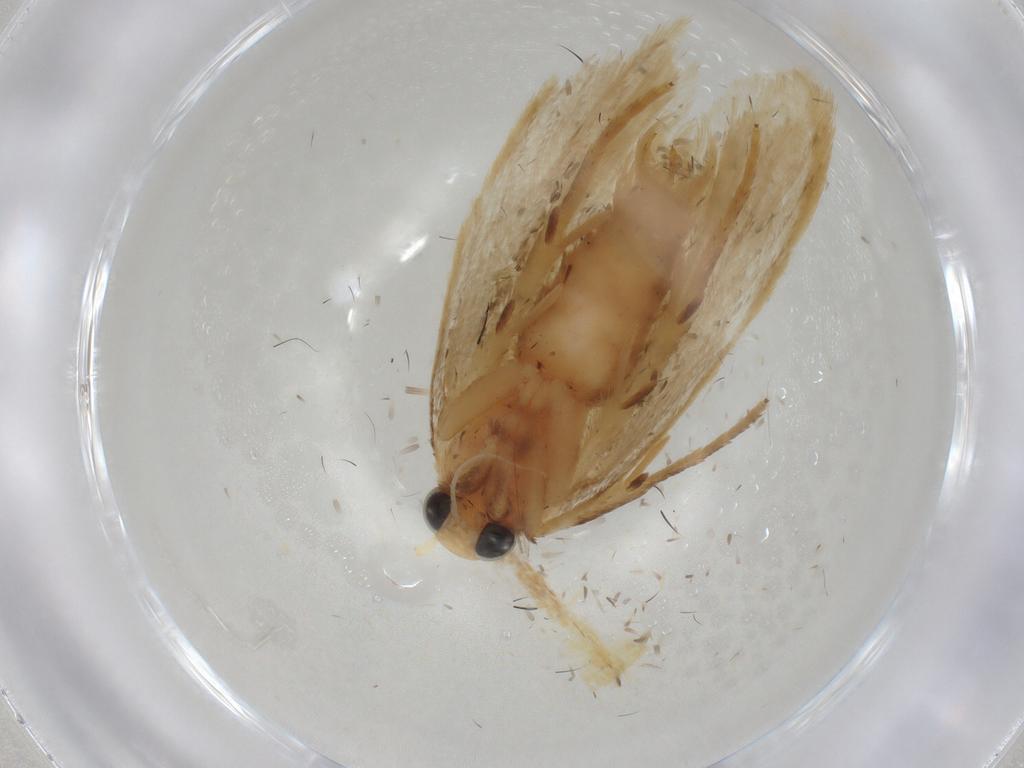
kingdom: Animalia
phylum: Arthropoda
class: Insecta
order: Lepidoptera
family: Depressariidae
